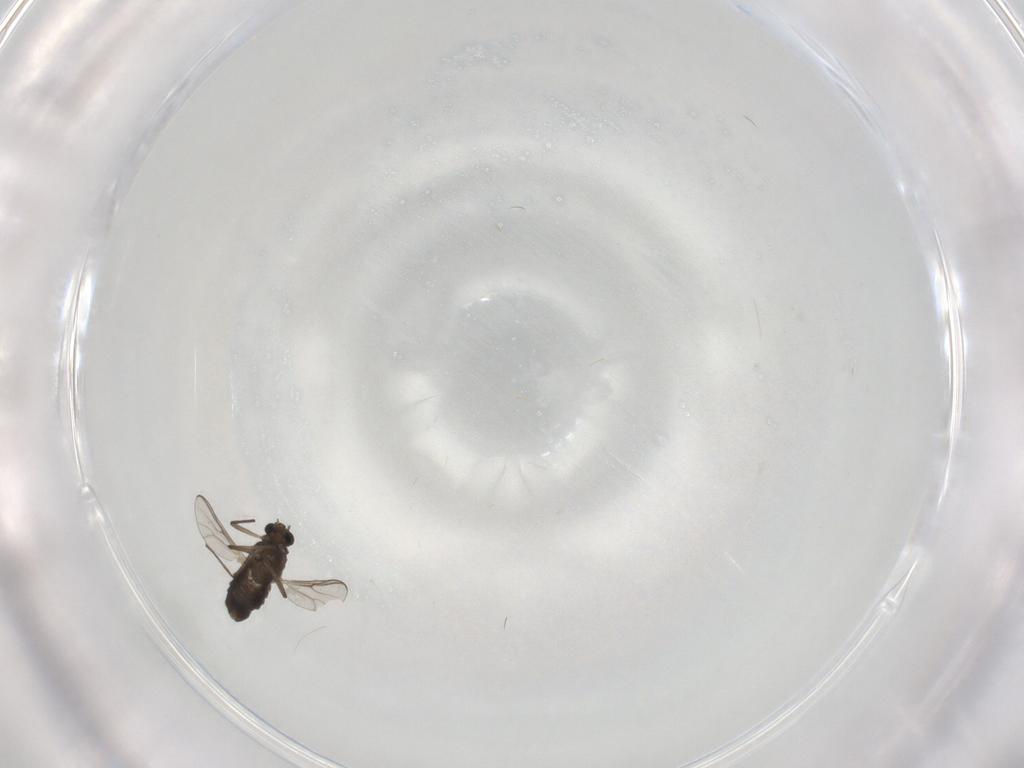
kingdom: Animalia
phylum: Arthropoda
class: Insecta
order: Diptera
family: Chironomidae
